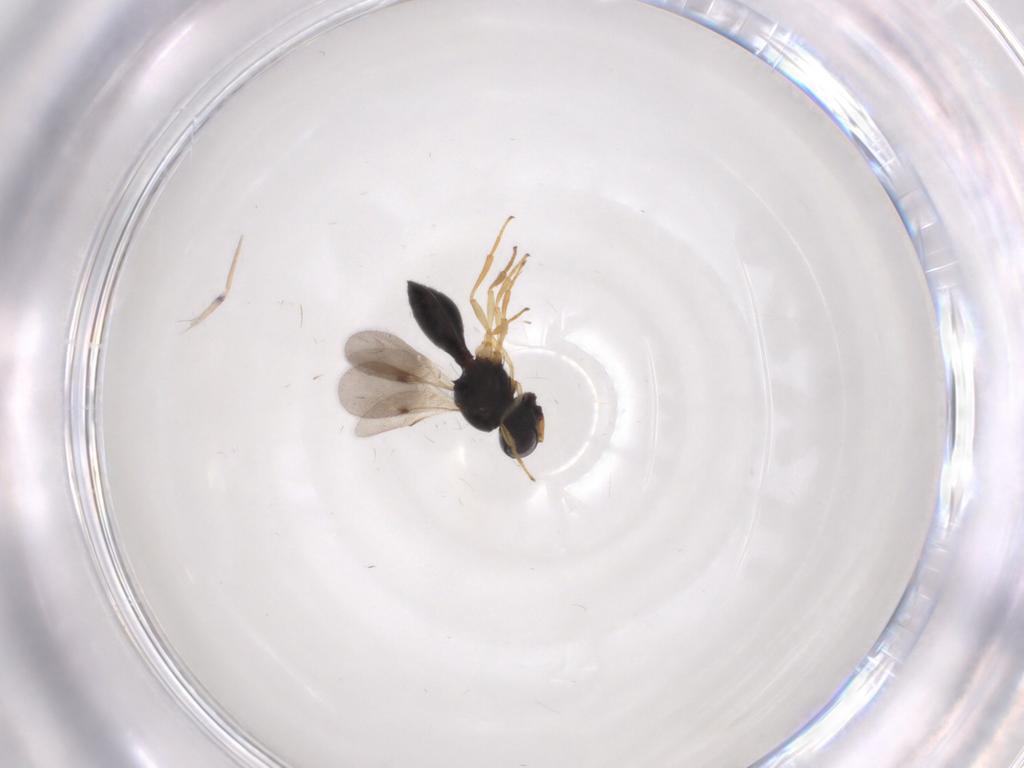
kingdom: Animalia
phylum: Arthropoda
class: Insecta
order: Hymenoptera
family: Scelionidae
